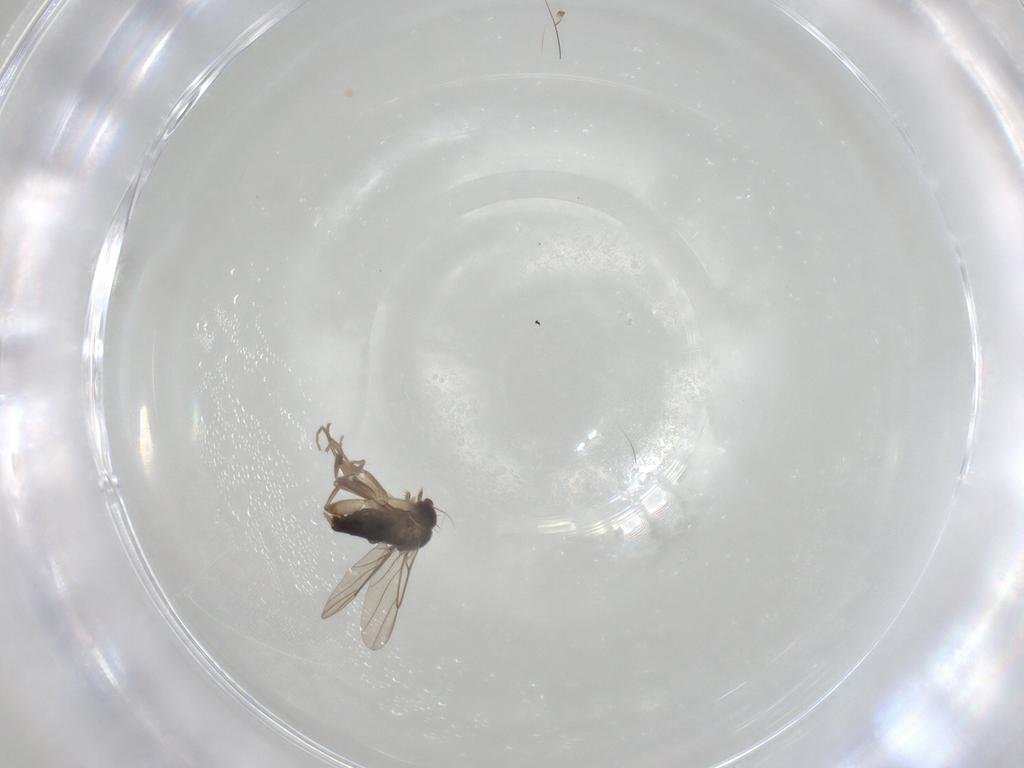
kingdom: Animalia
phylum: Arthropoda
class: Insecta
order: Diptera
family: Phoridae
